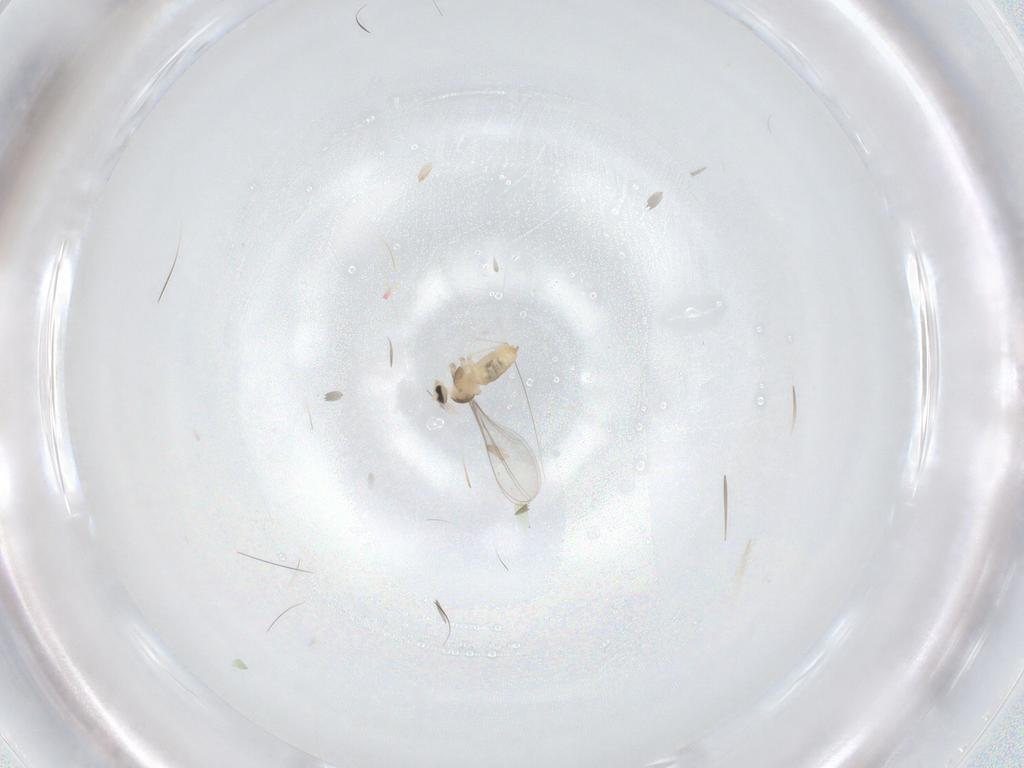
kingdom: Animalia
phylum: Arthropoda
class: Insecta
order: Diptera
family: Cecidomyiidae
